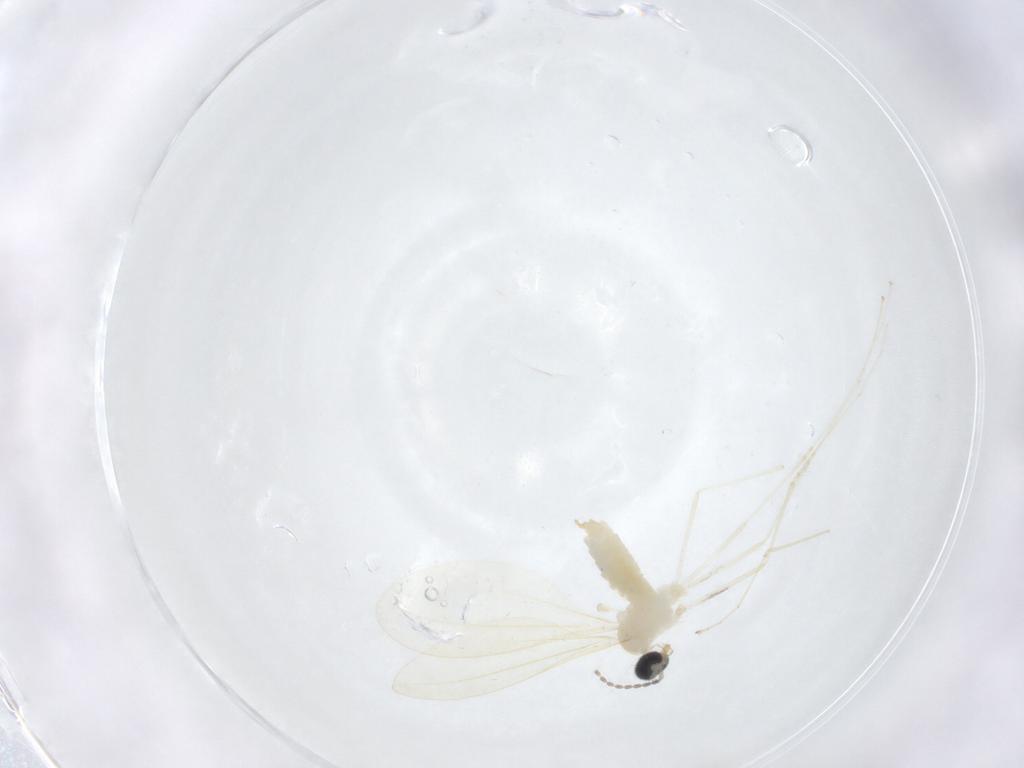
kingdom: Animalia
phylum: Arthropoda
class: Insecta
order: Diptera
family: Cecidomyiidae
